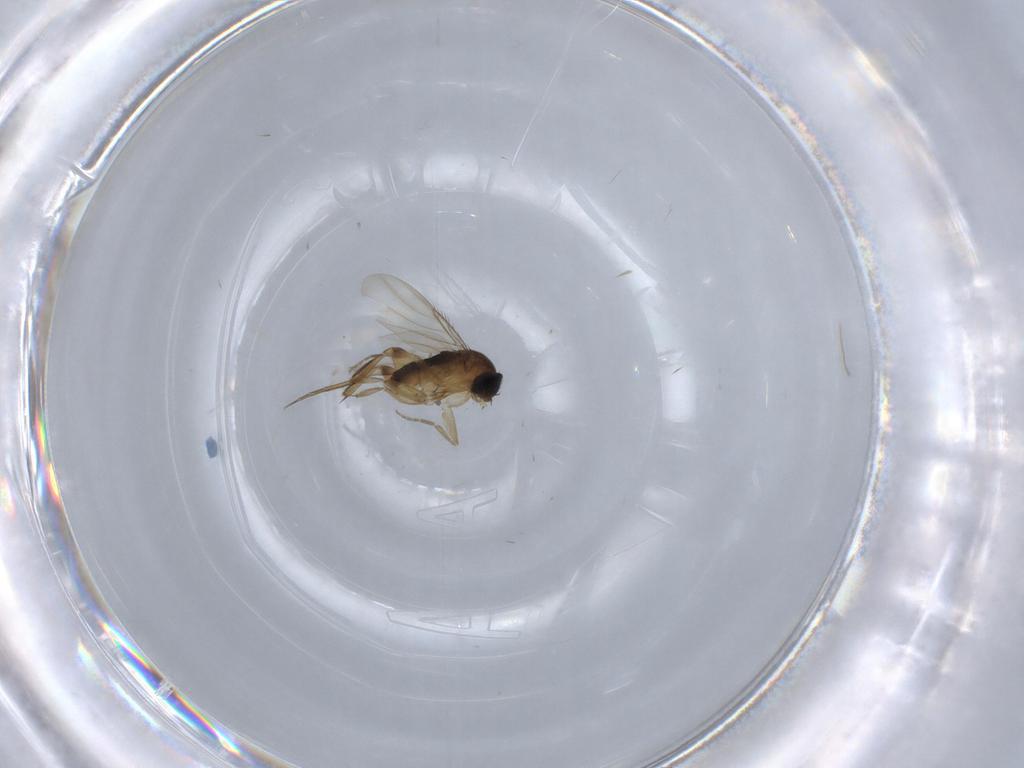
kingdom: Animalia
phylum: Arthropoda
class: Insecta
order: Diptera
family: Phoridae
